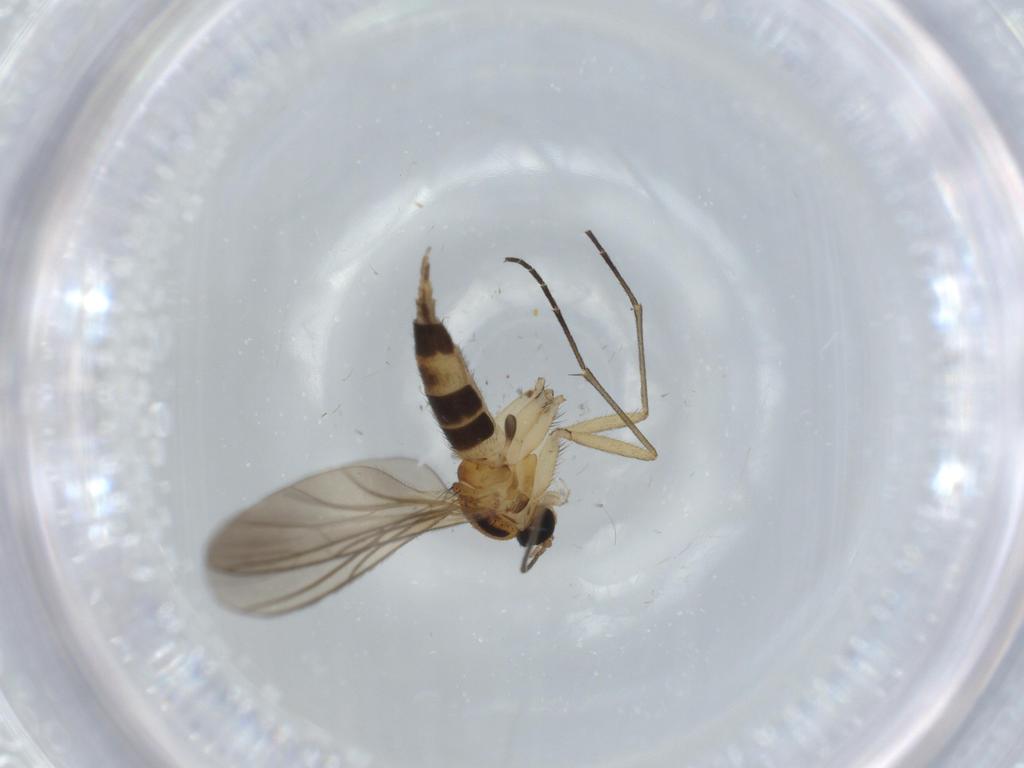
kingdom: Animalia
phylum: Arthropoda
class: Insecta
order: Diptera
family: Sciaridae
